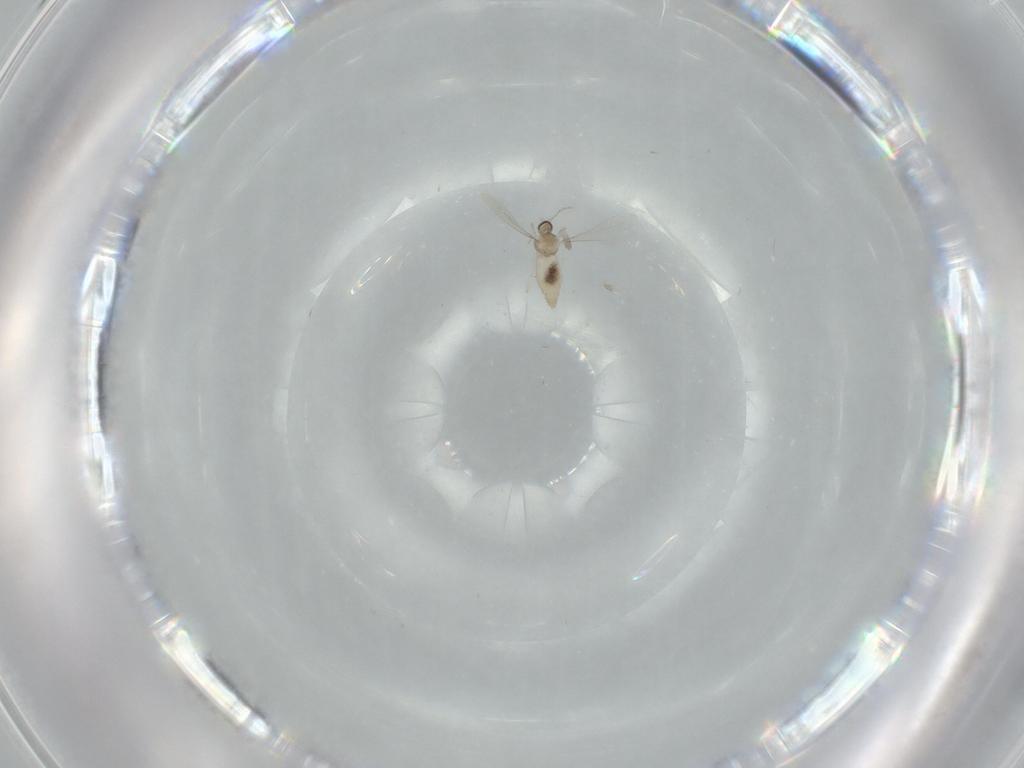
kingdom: Animalia
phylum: Arthropoda
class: Insecta
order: Diptera
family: Cecidomyiidae
